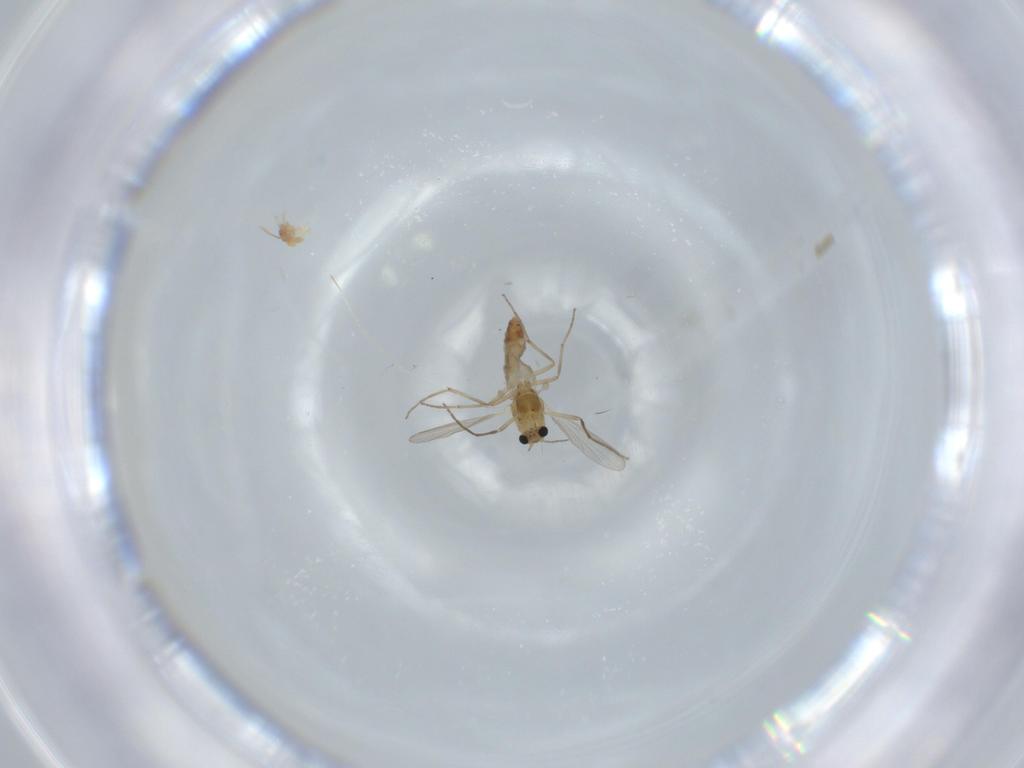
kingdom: Animalia
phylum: Arthropoda
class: Insecta
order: Diptera
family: Chironomidae
